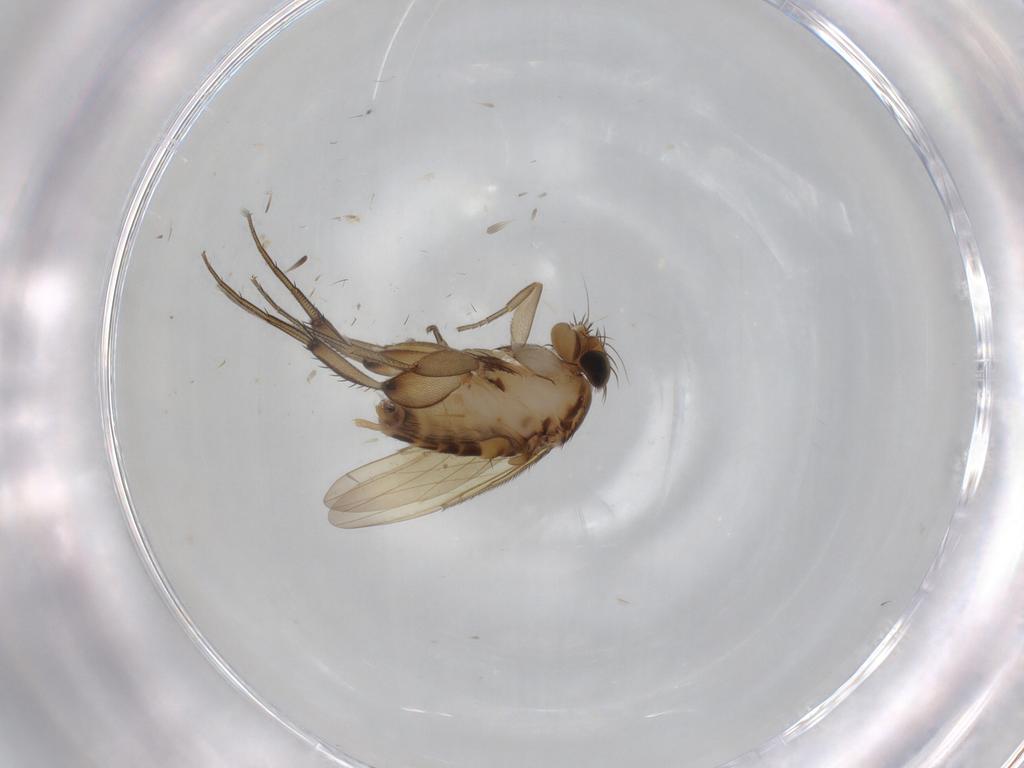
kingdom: Animalia
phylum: Arthropoda
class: Insecta
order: Diptera
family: Phoridae
